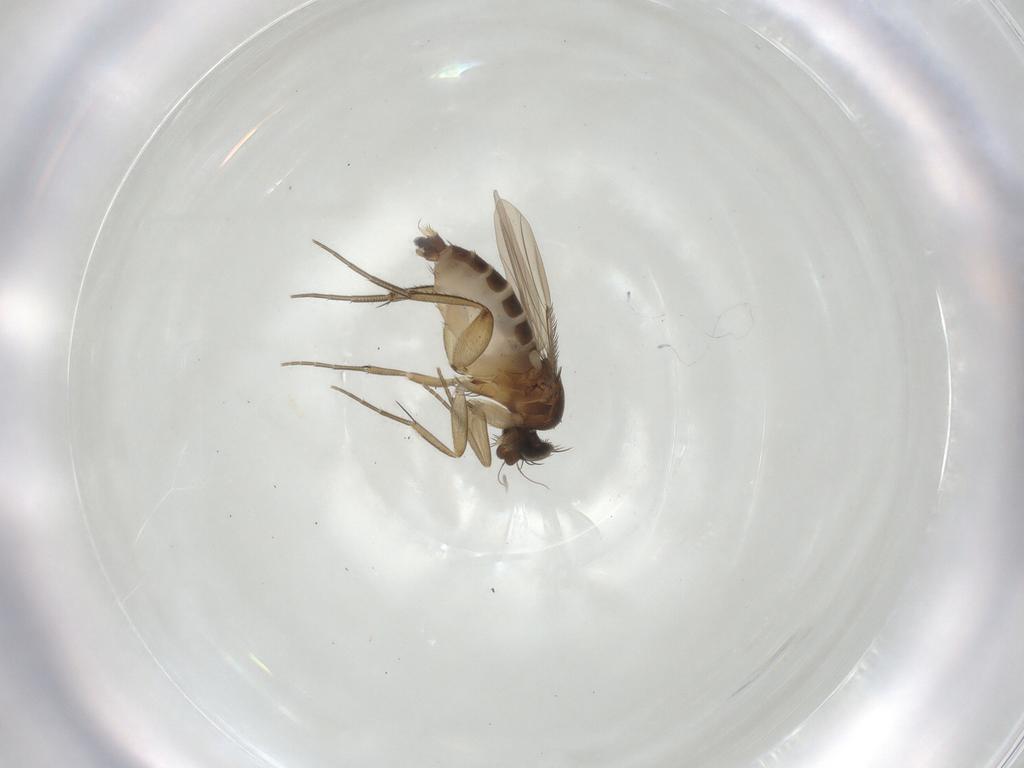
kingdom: Animalia
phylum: Arthropoda
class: Insecta
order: Diptera
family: Phoridae
